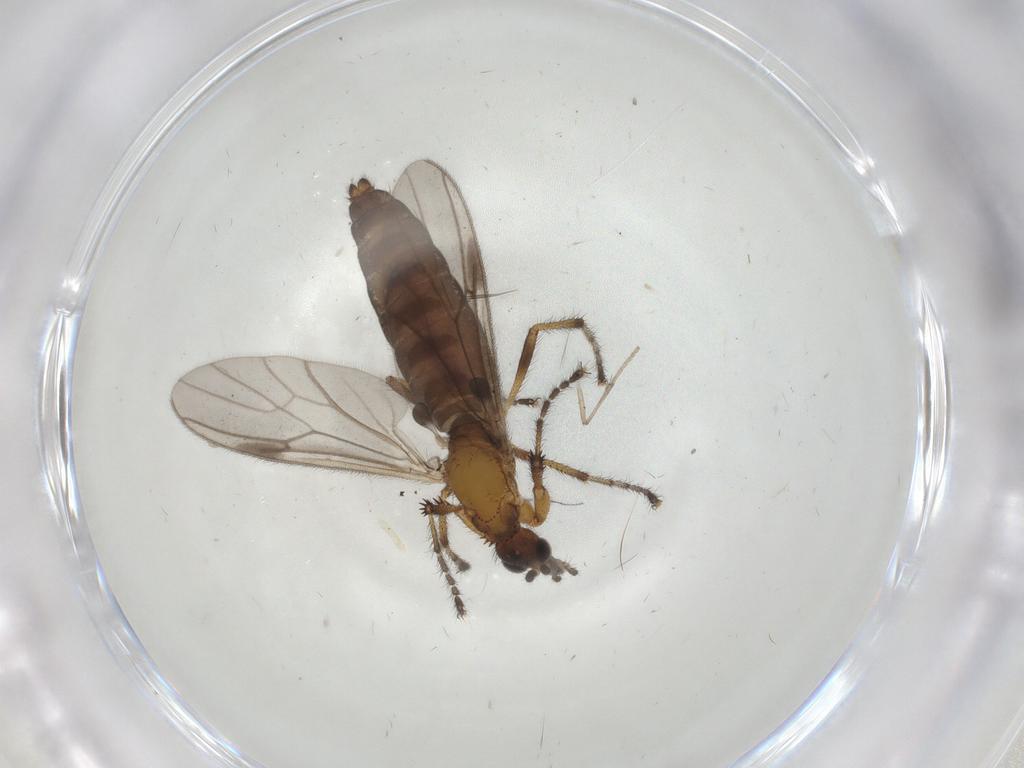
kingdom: Animalia
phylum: Arthropoda
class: Insecta
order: Diptera
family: Bibionidae
